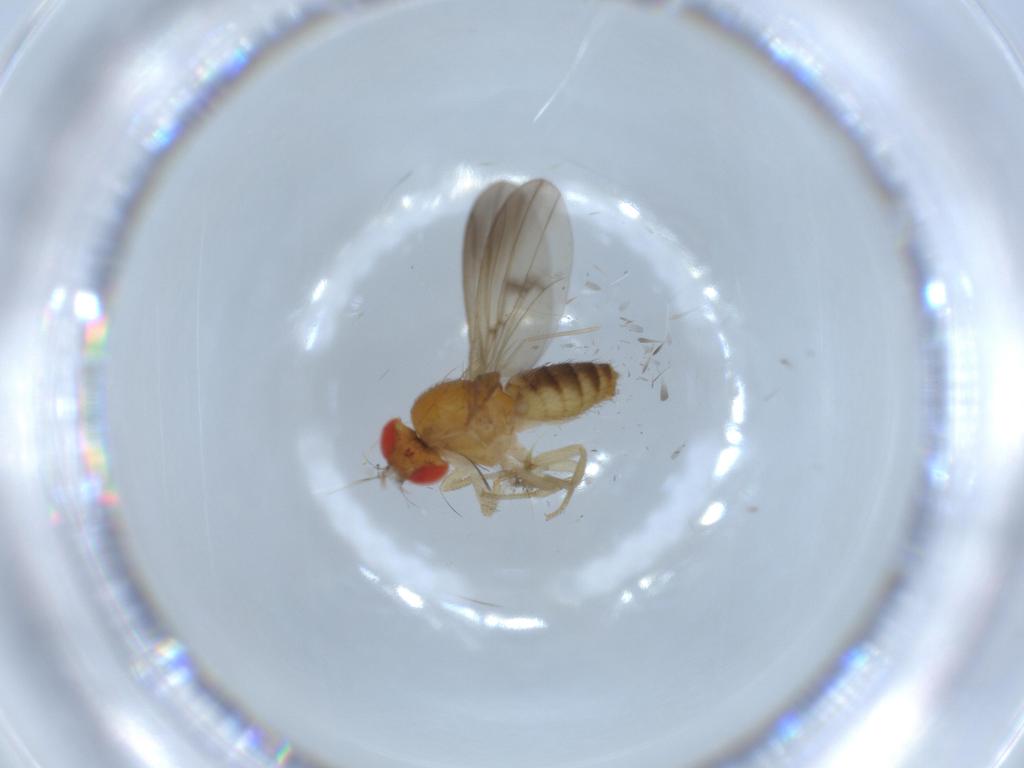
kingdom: Animalia
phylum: Arthropoda
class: Insecta
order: Diptera
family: Drosophilidae
